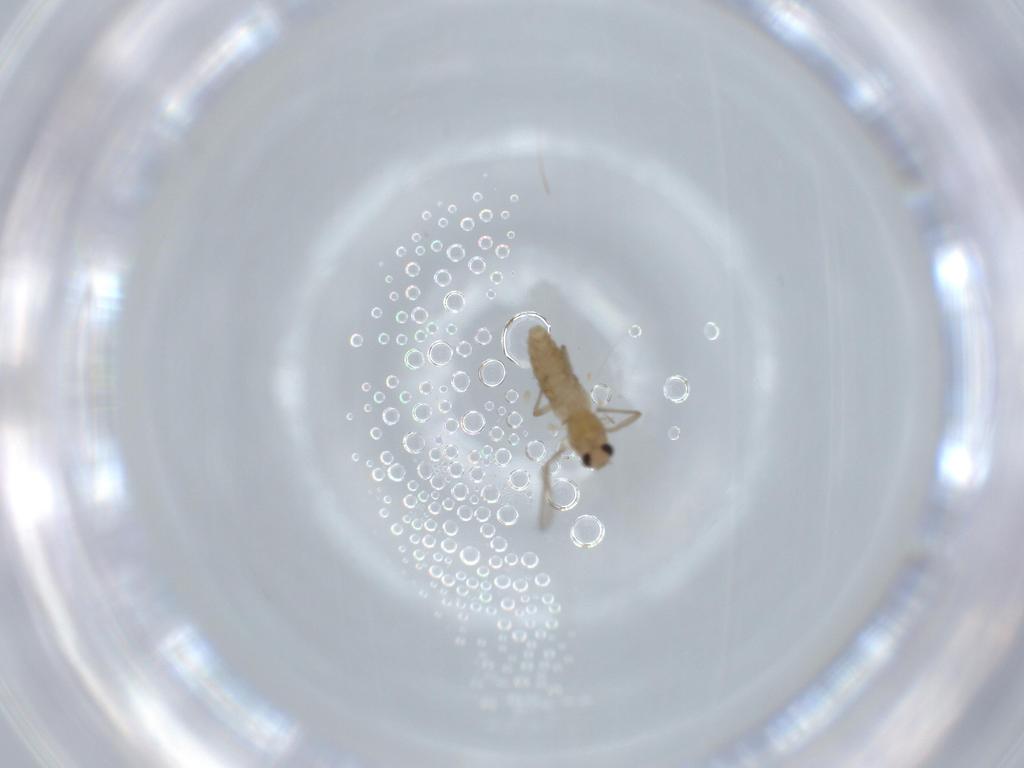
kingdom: Animalia
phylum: Arthropoda
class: Insecta
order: Diptera
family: Chironomidae
